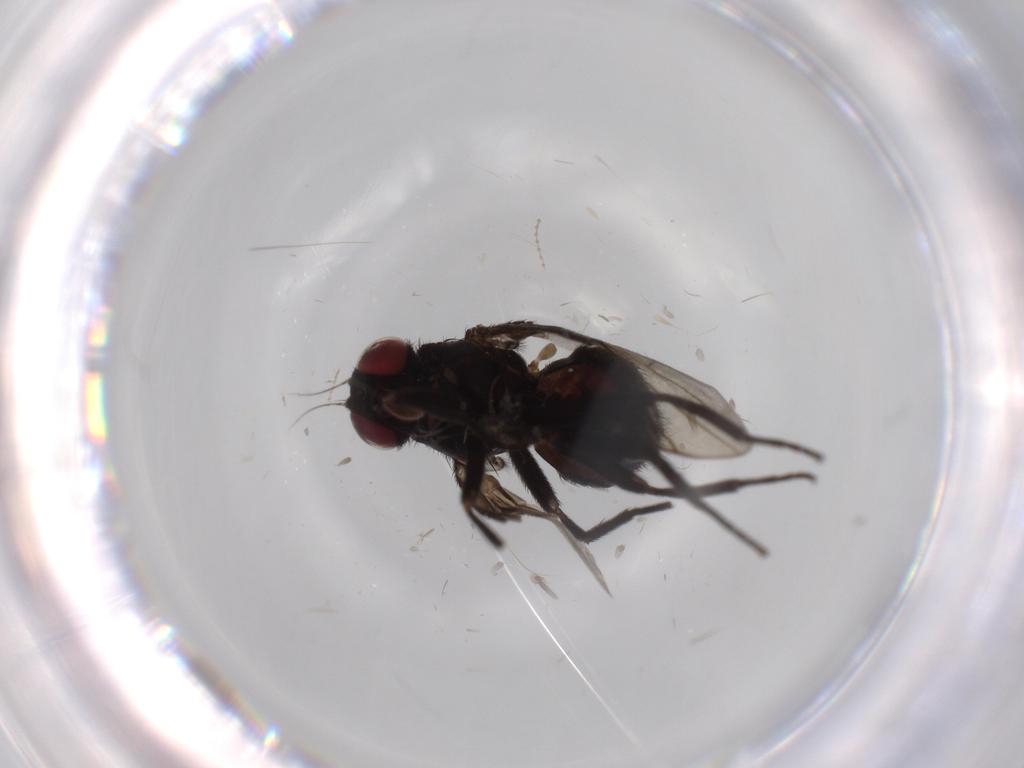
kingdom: Animalia
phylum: Arthropoda
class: Insecta
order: Diptera
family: Agromyzidae
